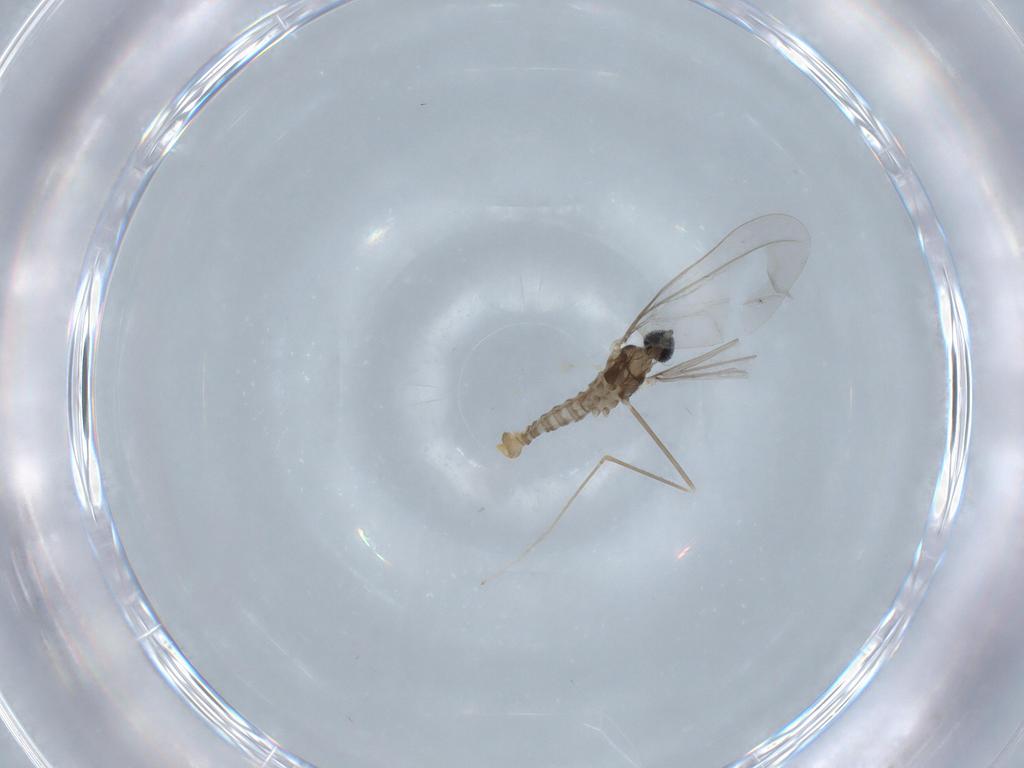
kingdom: Animalia
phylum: Arthropoda
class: Insecta
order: Diptera
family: Cecidomyiidae
